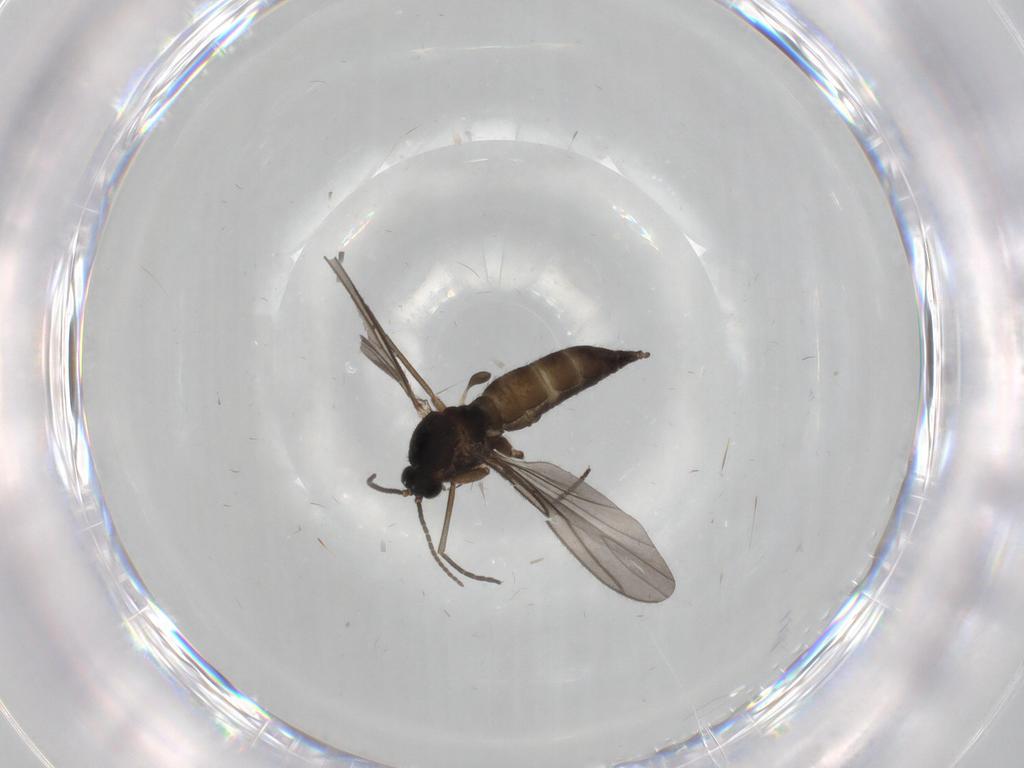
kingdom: Animalia
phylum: Arthropoda
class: Insecta
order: Diptera
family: Sciaridae
